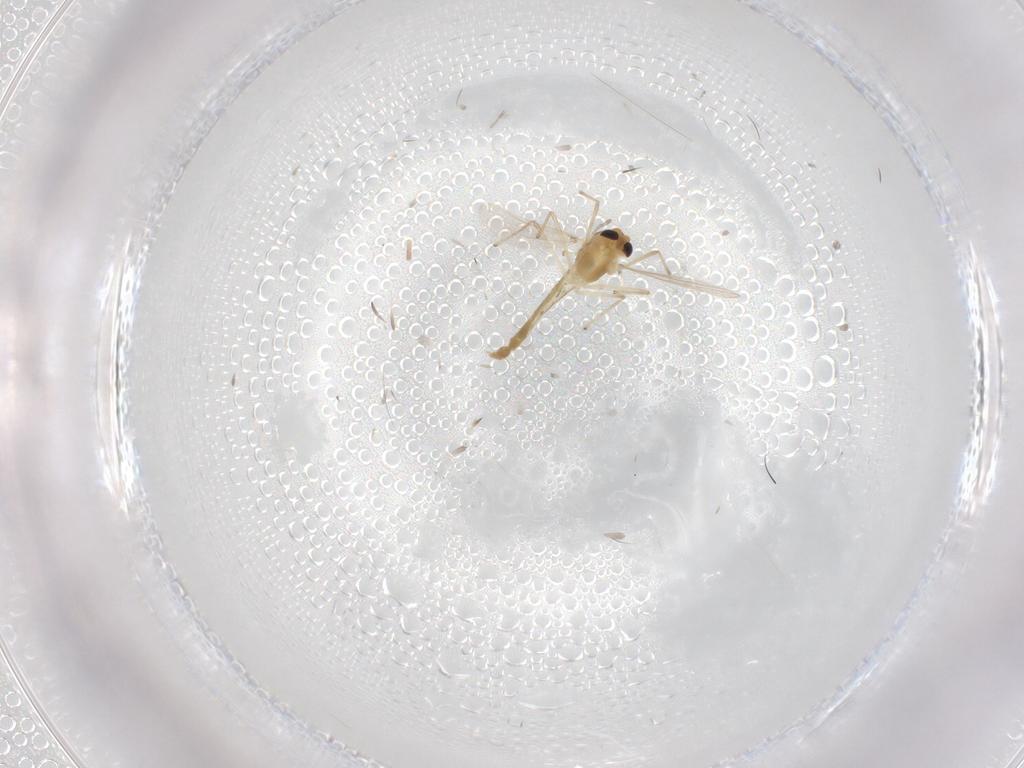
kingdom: Animalia
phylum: Arthropoda
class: Insecta
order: Diptera
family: Chironomidae
